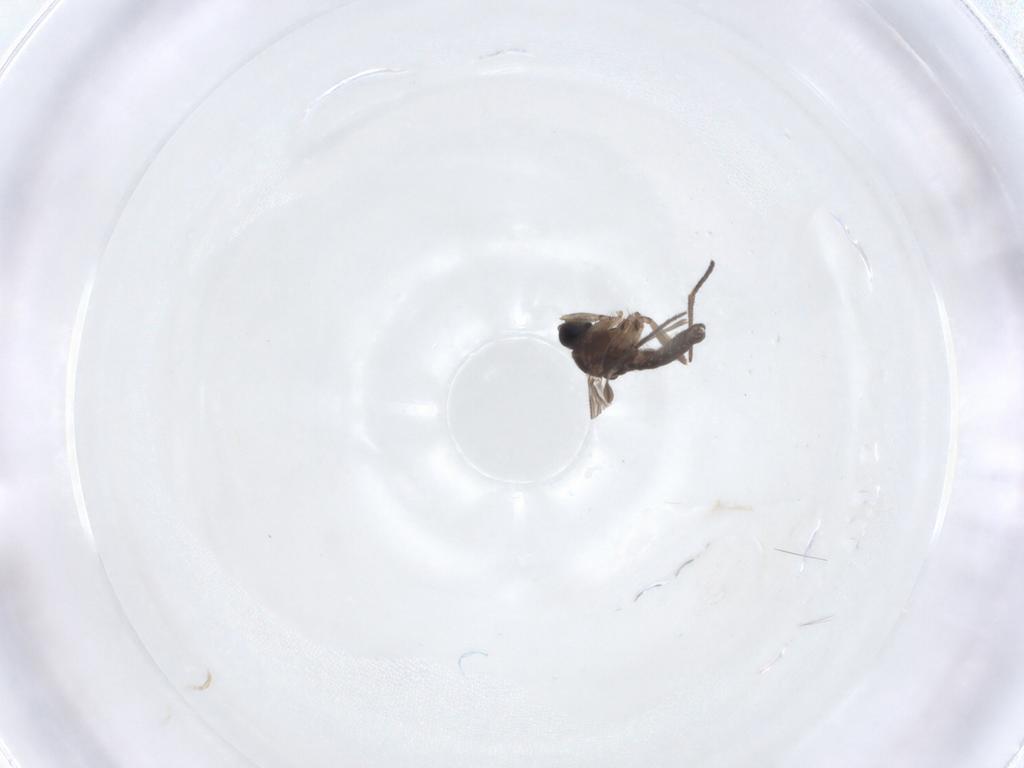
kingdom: Animalia
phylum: Arthropoda
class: Insecta
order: Diptera
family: Sciaridae
